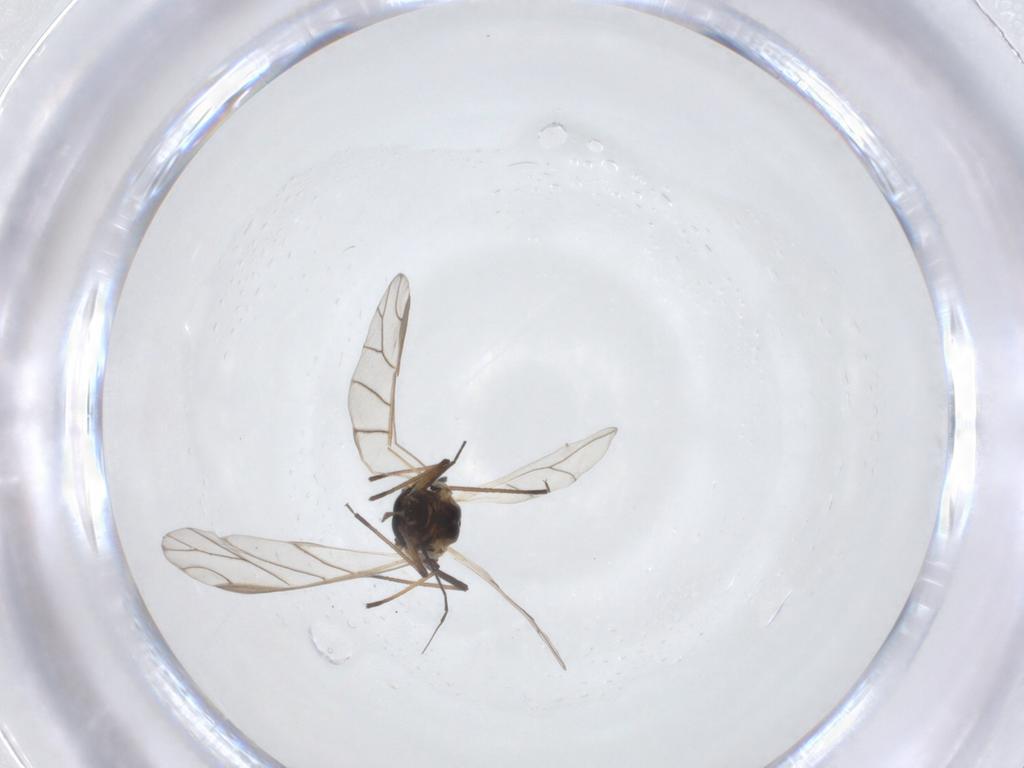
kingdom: Animalia
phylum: Arthropoda
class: Insecta
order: Hemiptera
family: Aphididae
